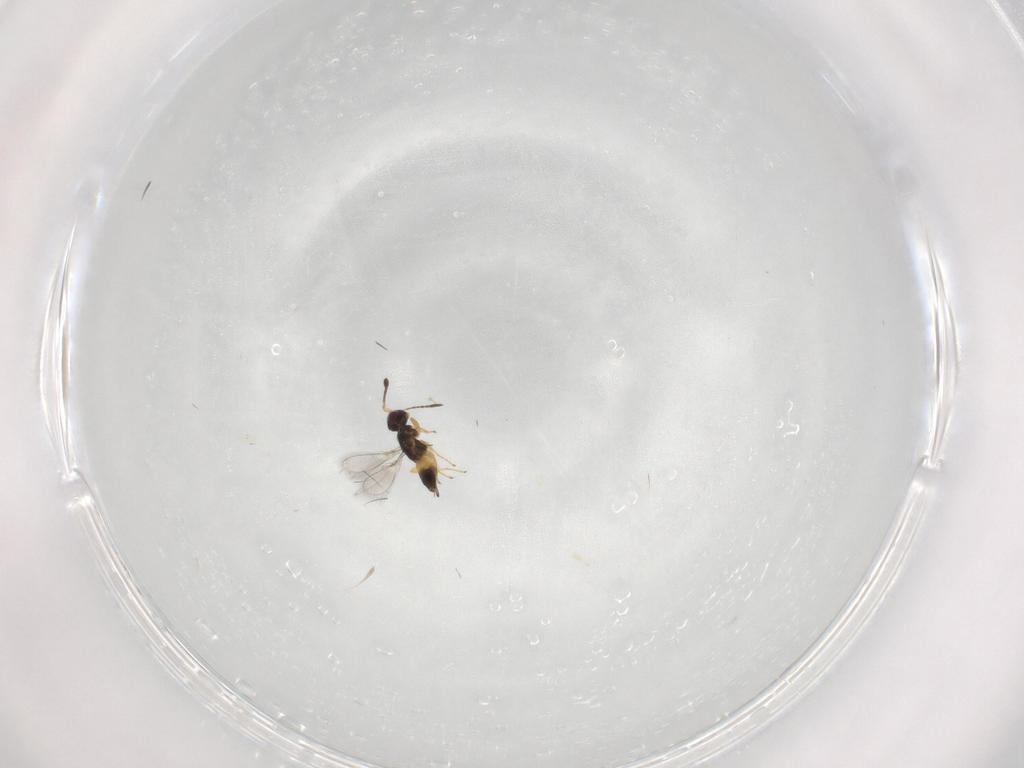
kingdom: Animalia
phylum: Arthropoda
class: Insecta
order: Hymenoptera
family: Mymaridae
